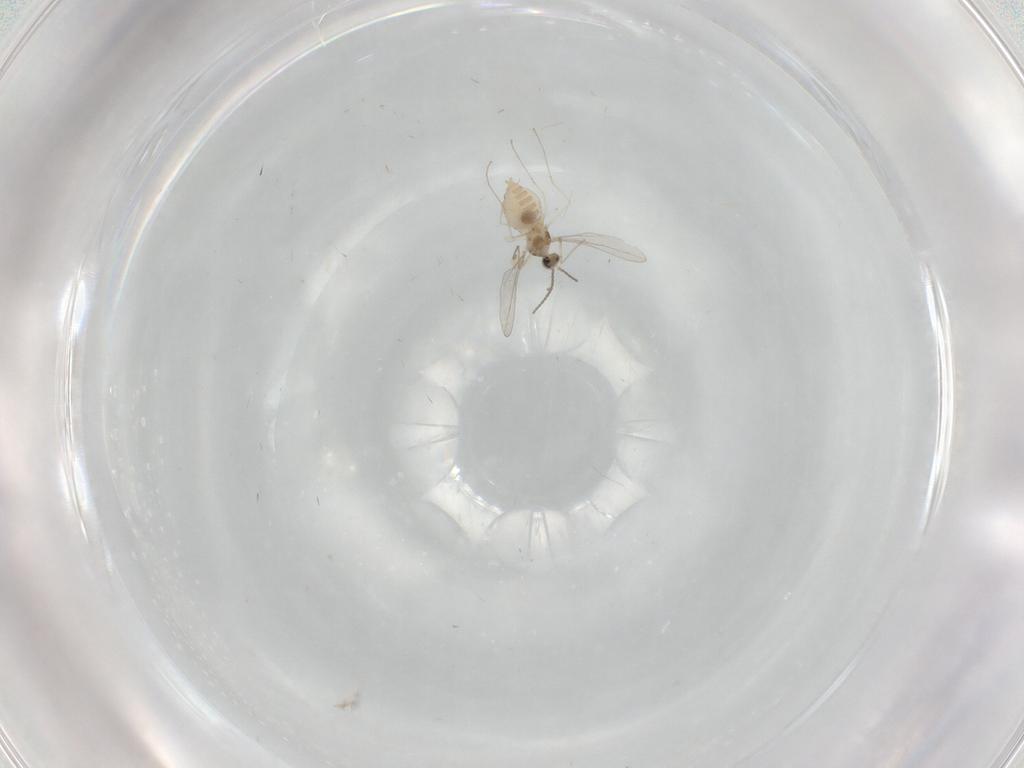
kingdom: Animalia
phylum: Arthropoda
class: Insecta
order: Diptera
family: Cecidomyiidae
